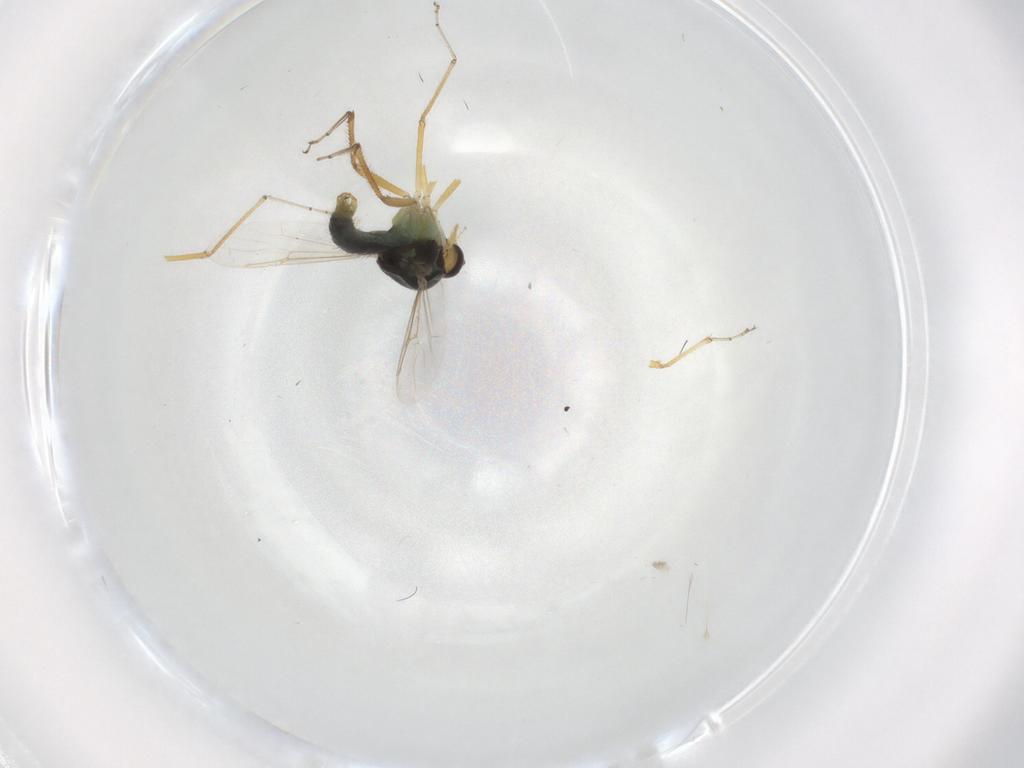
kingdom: Animalia
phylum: Arthropoda
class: Insecta
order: Diptera
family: Ceratopogonidae
